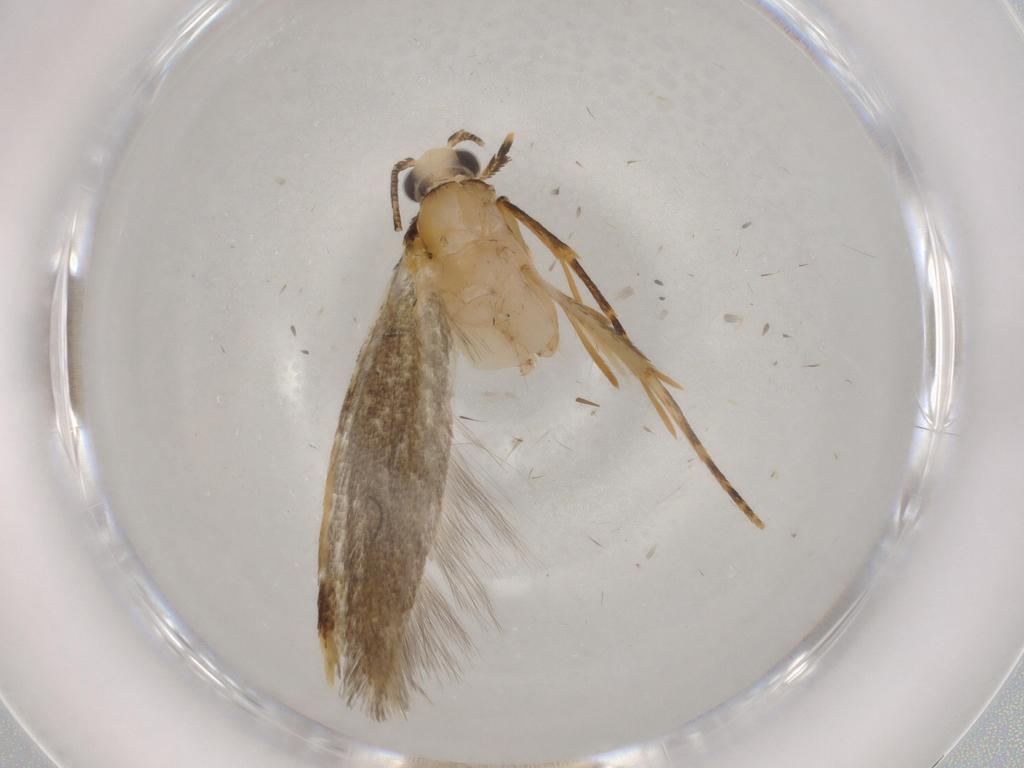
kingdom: Animalia
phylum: Arthropoda
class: Insecta
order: Lepidoptera
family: Tineidae
